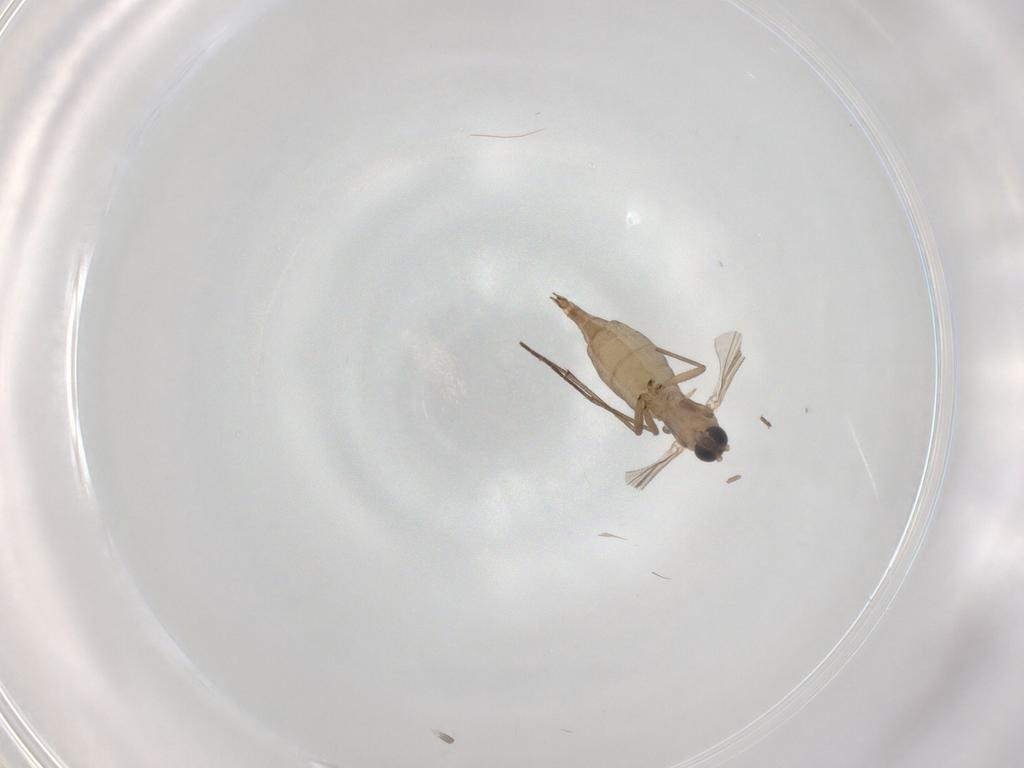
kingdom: Animalia
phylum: Arthropoda
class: Insecta
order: Diptera
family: Sciaridae
